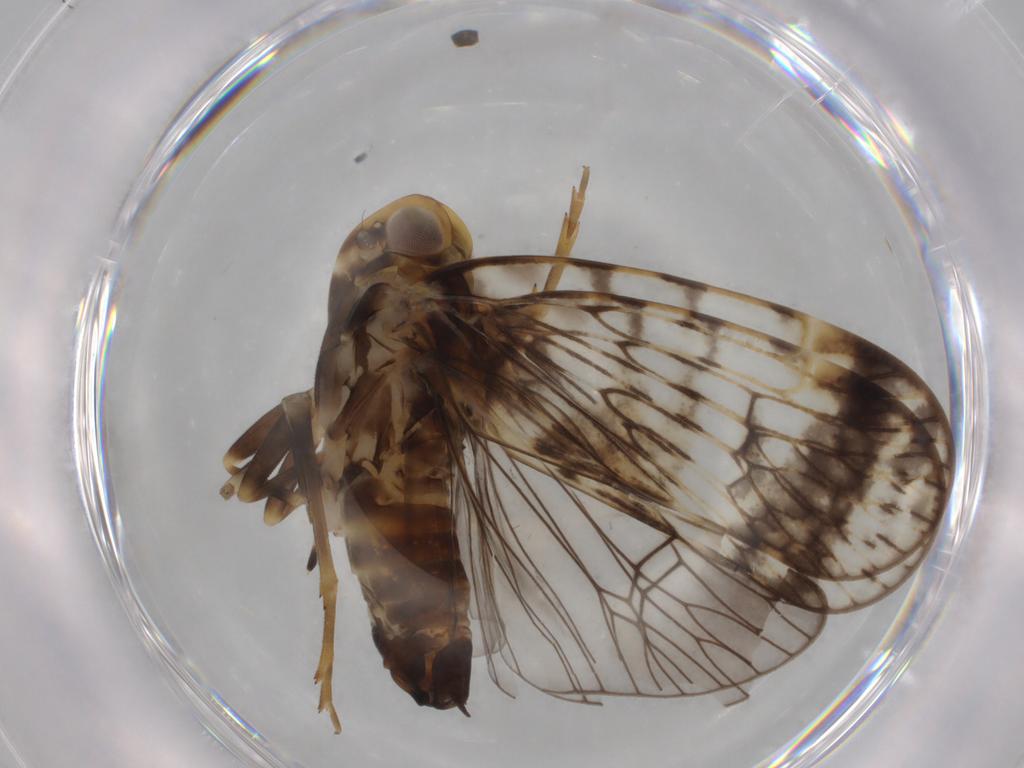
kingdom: Animalia
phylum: Arthropoda
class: Insecta
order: Hemiptera
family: Cixiidae
